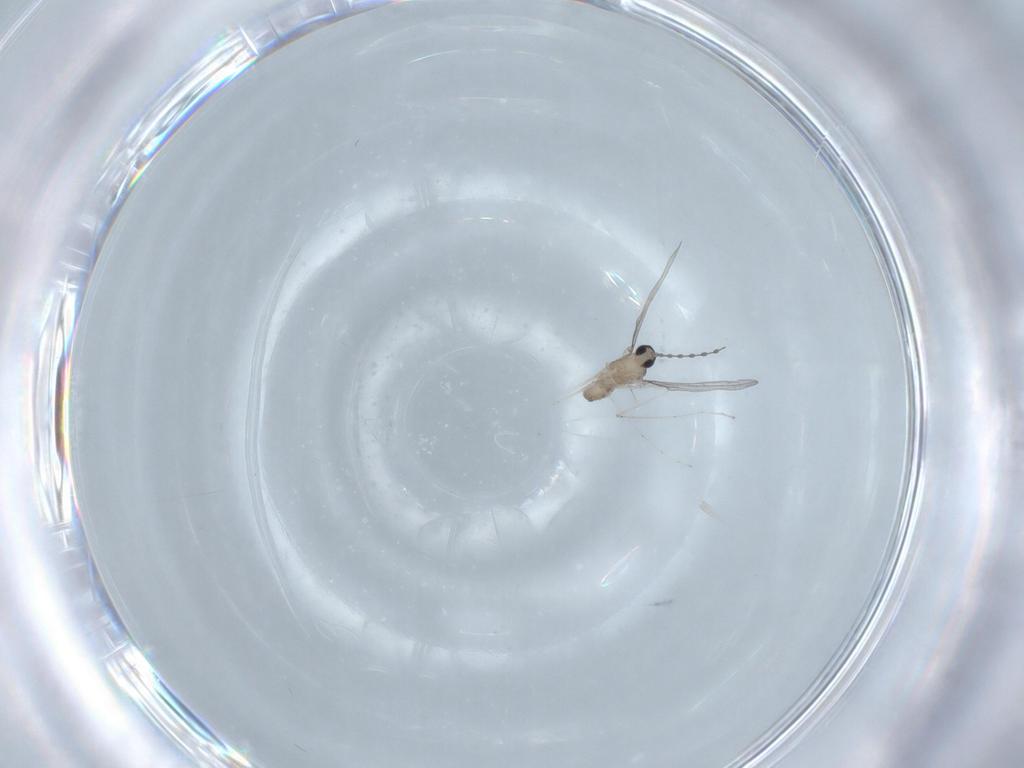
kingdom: Animalia
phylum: Arthropoda
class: Insecta
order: Diptera
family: Cecidomyiidae
